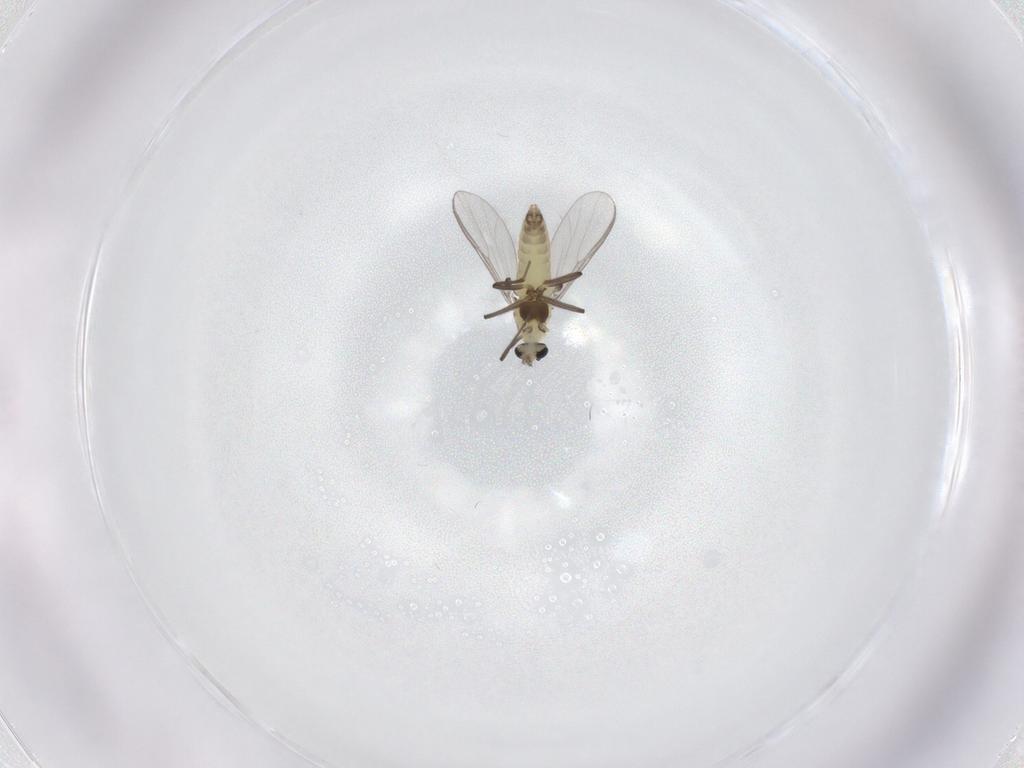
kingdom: Animalia
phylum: Arthropoda
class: Insecta
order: Diptera
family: Chironomidae
